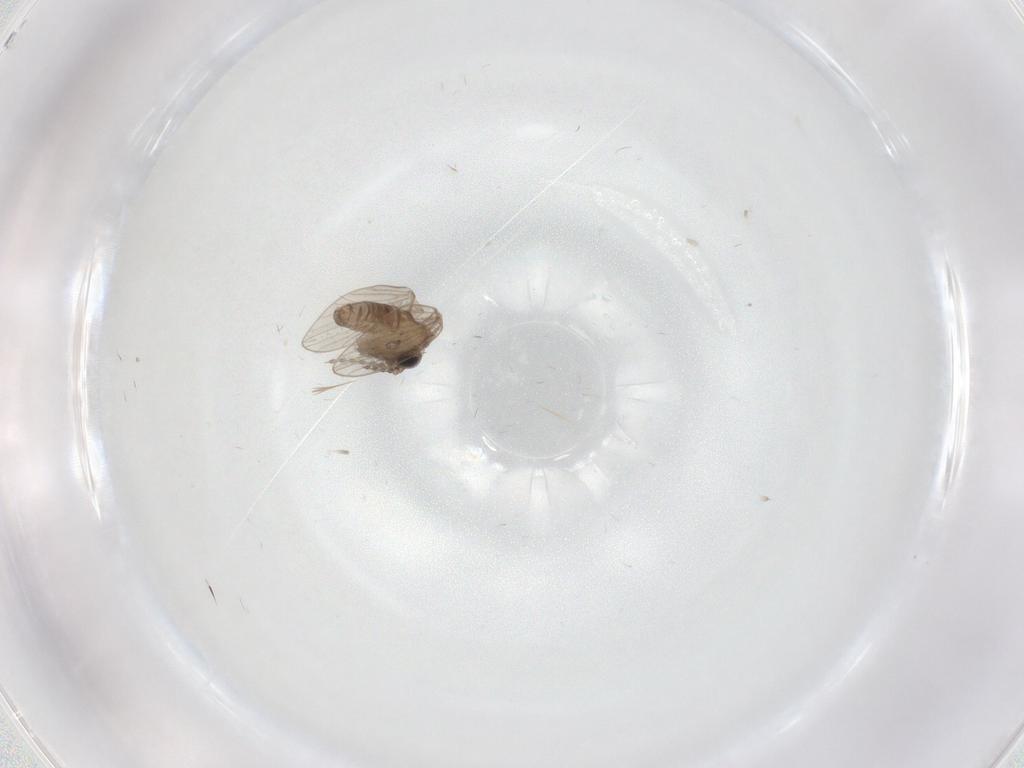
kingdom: Animalia
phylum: Arthropoda
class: Insecta
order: Diptera
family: Psychodidae
